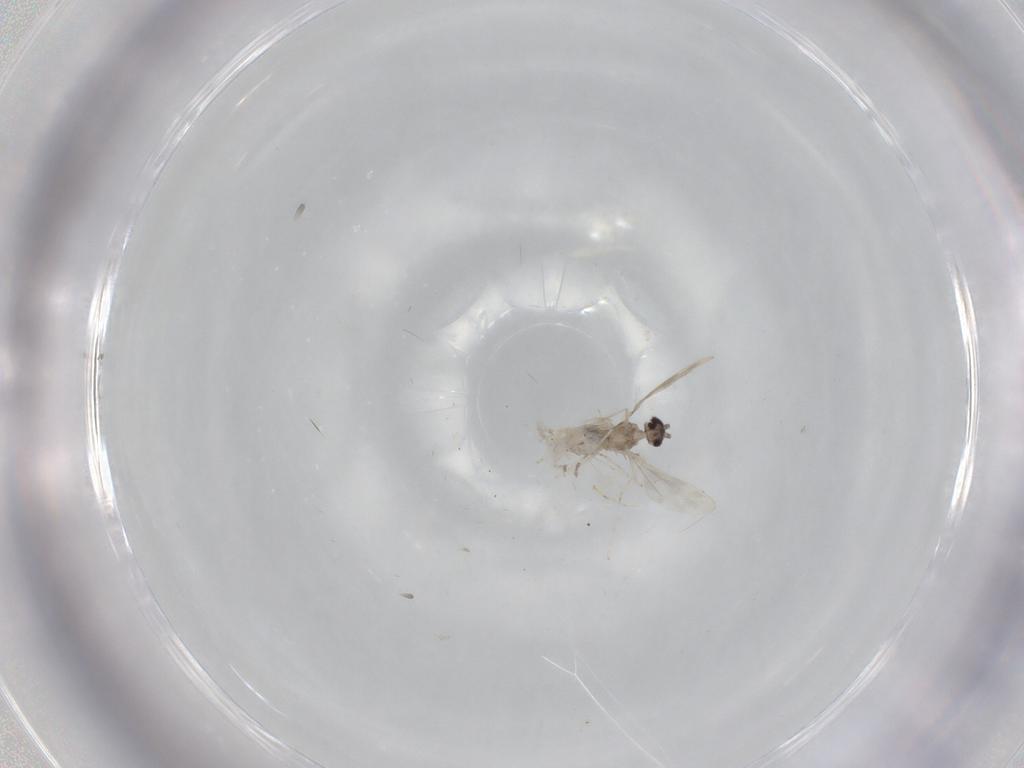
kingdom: Animalia
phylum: Arthropoda
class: Insecta
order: Diptera
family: Cecidomyiidae
